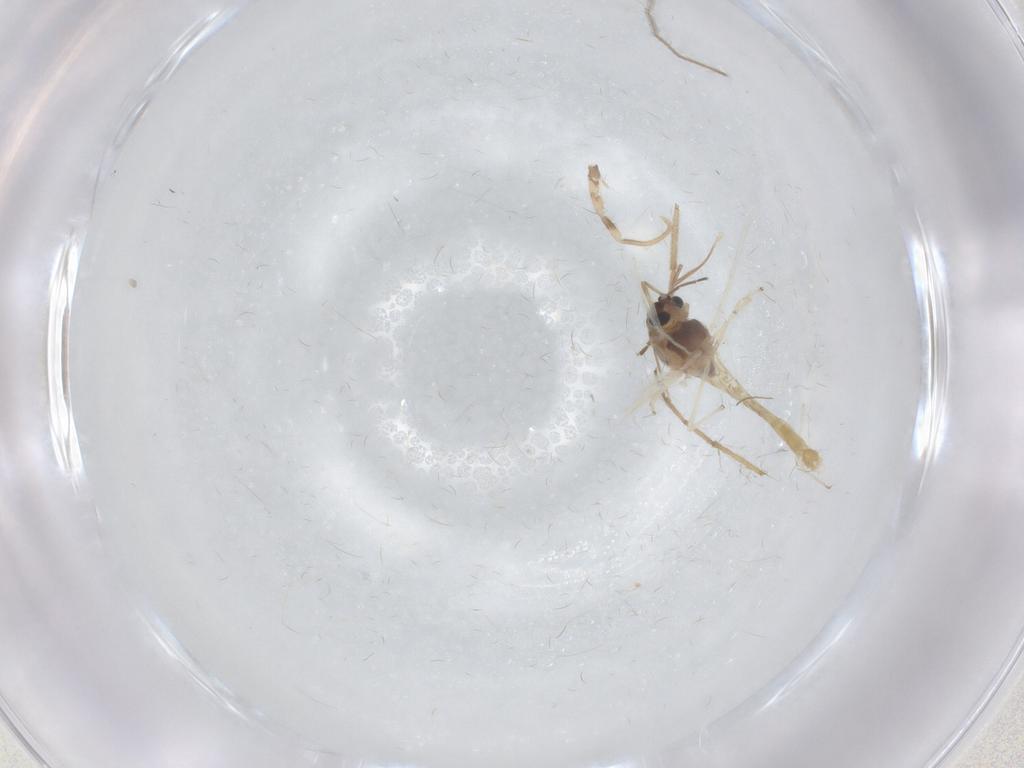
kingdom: Animalia
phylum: Arthropoda
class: Insecta
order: Diptera
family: Chironomidae
